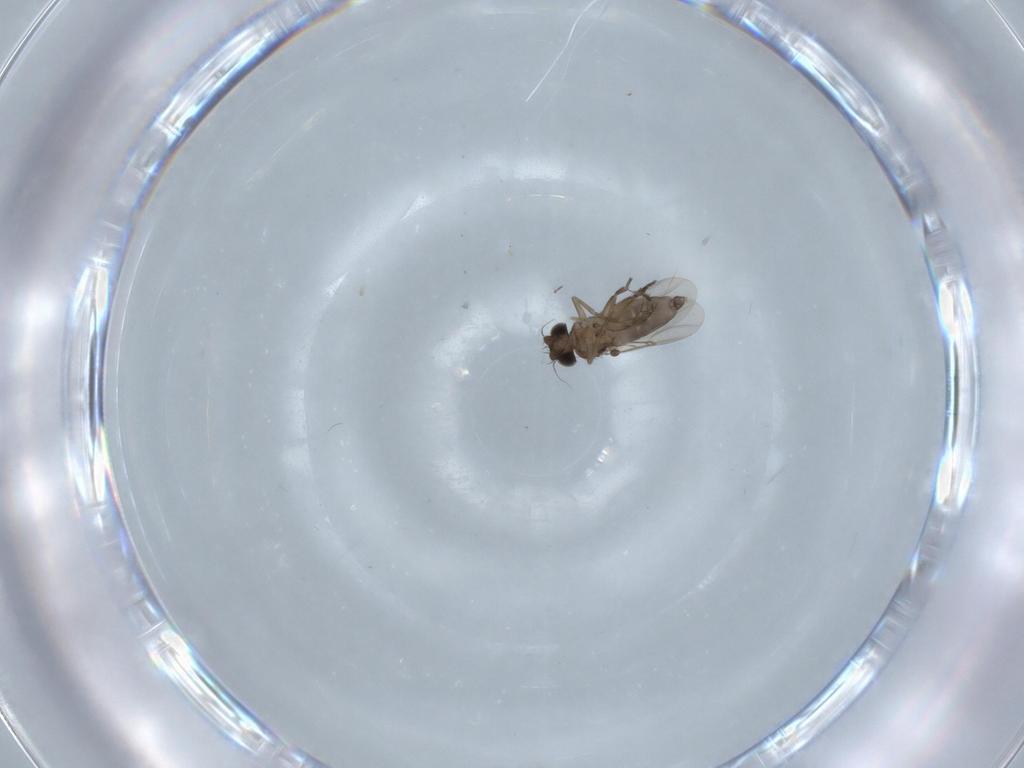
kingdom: Animalia
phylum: Arthropoda
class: Insecta
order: Diptera
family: Phoridae
